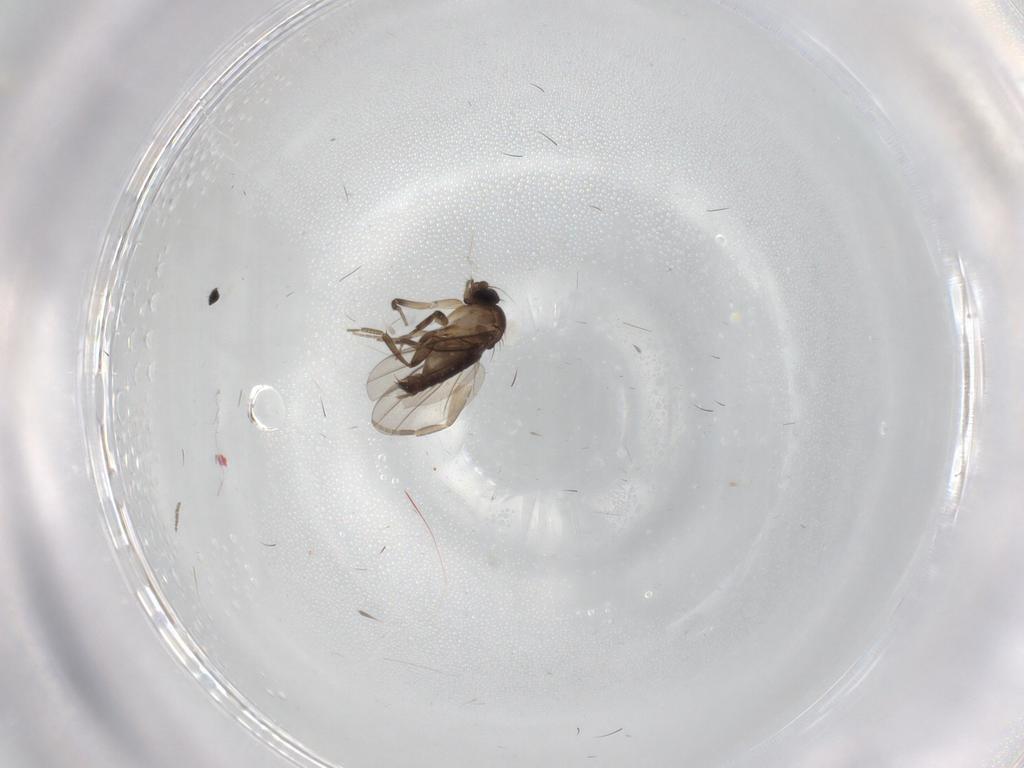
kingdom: Animalia
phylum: Arthropoda
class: Insecta
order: Diptera
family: Phoridae
